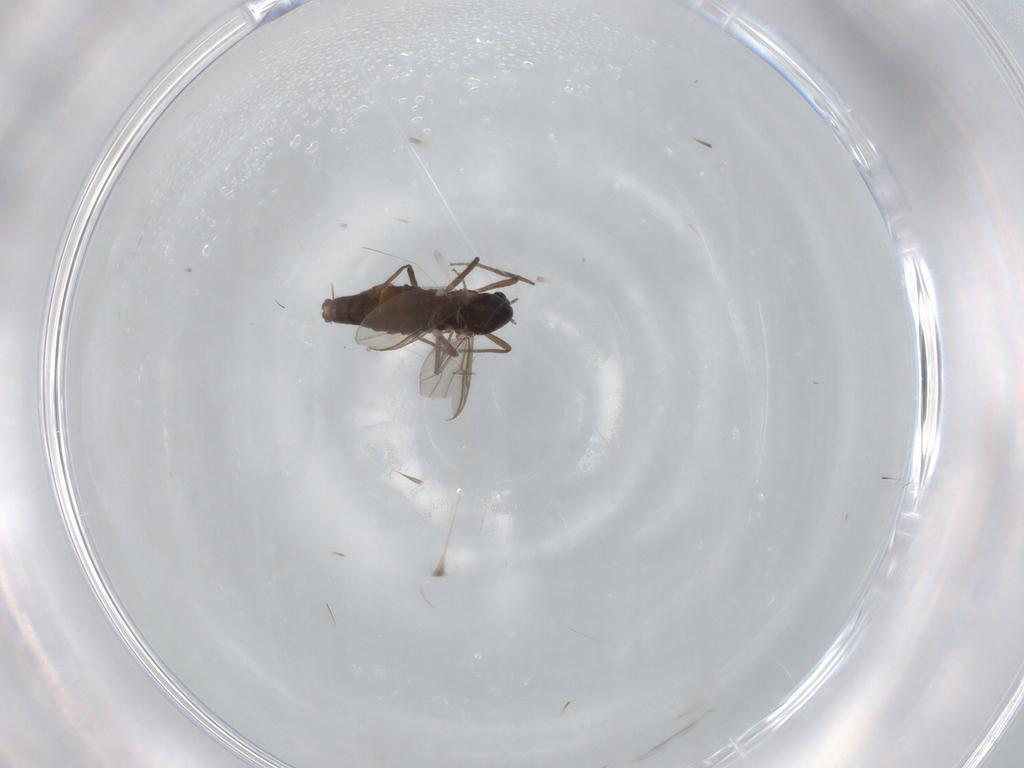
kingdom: Animalia
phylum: Arthropoda
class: Insecta
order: Diptera
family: Chironomidae
